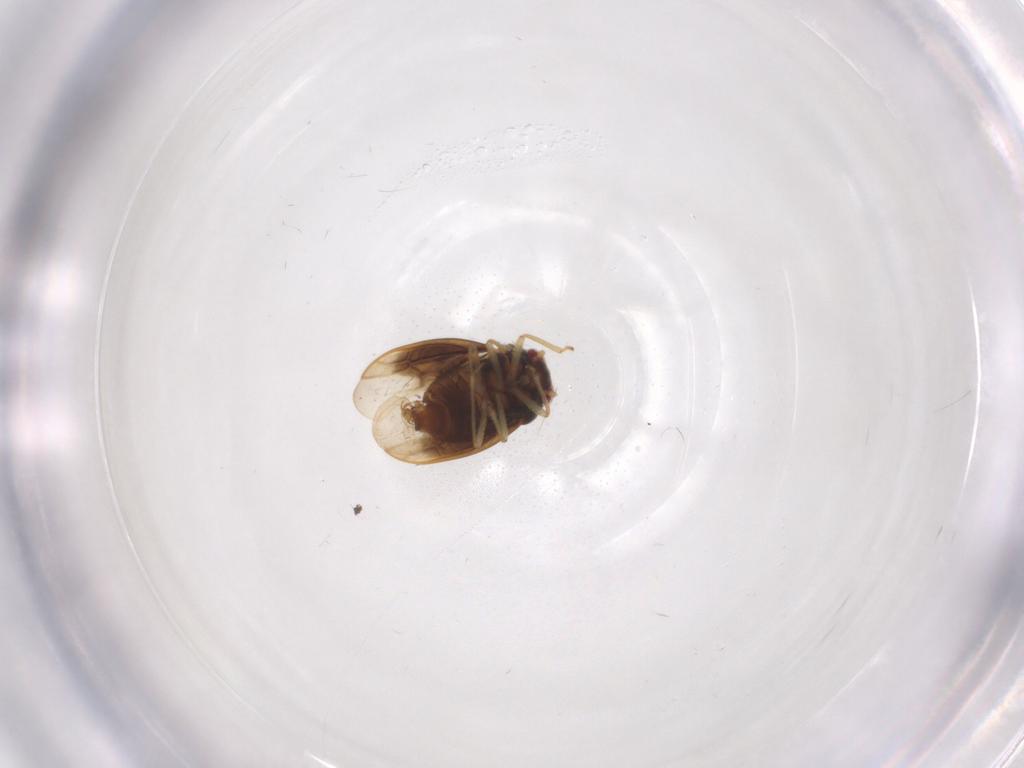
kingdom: Animalia
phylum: Arthropoda
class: Insecta
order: Hemiptera
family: Schizopteridae
